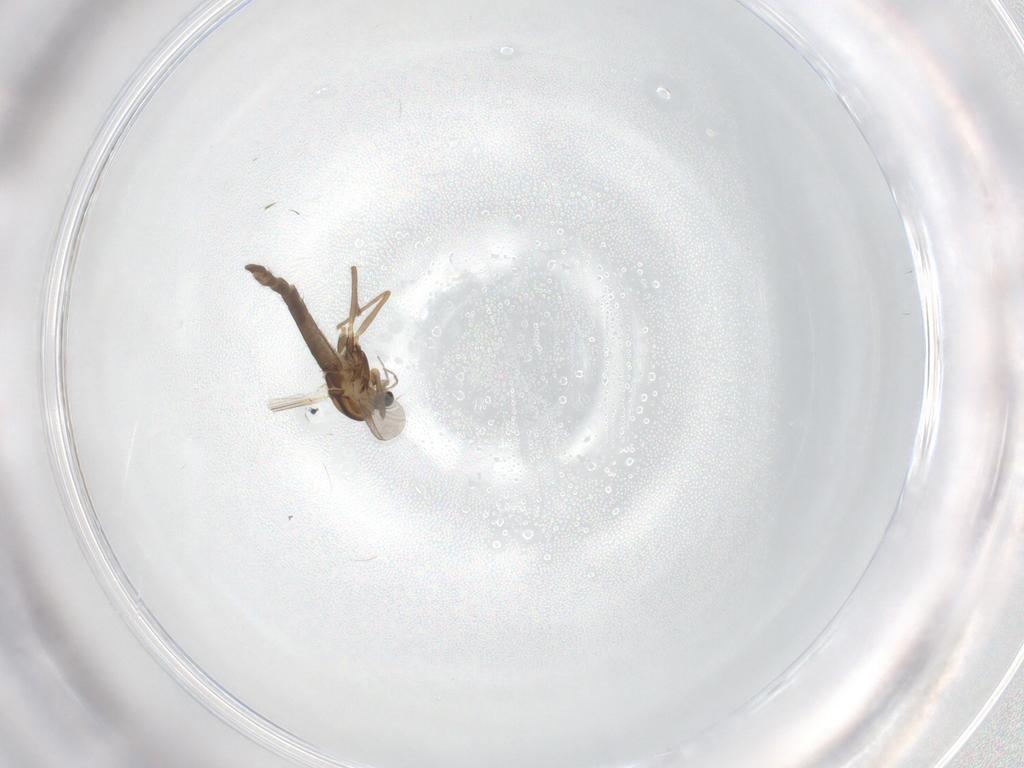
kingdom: Animalia
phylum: Arthropoda
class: Insecta
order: Diptera
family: Chironomidae
